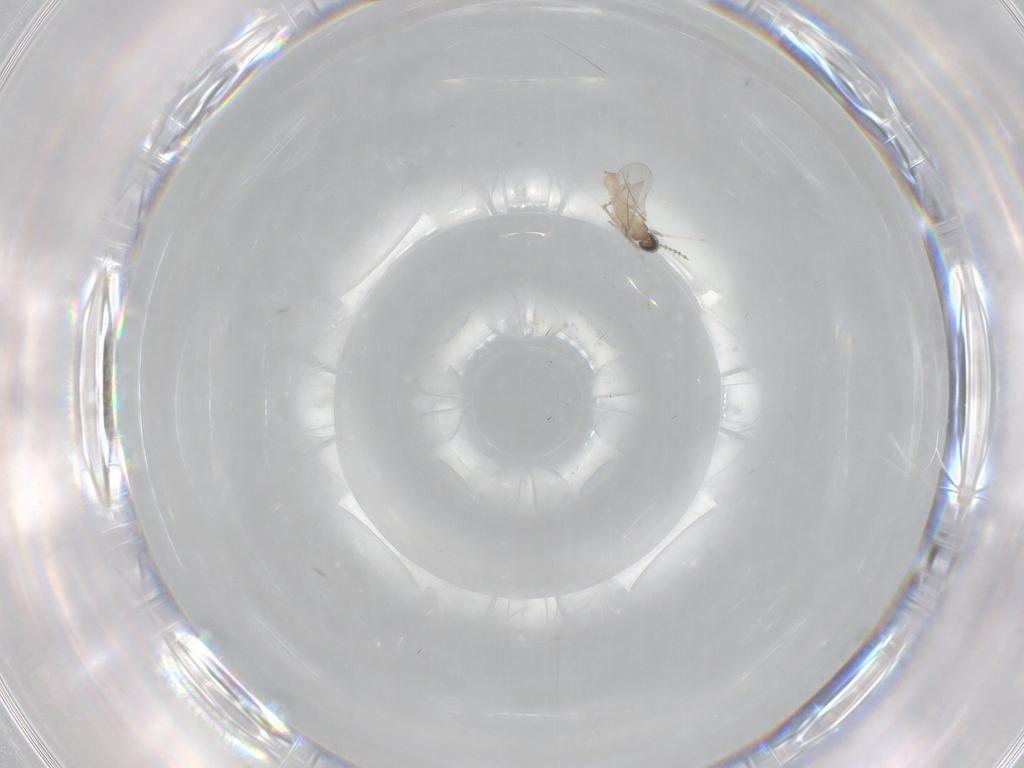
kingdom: Animalia
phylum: Arthropoda
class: Insecta
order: Diptera
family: Cecidomyiidae
